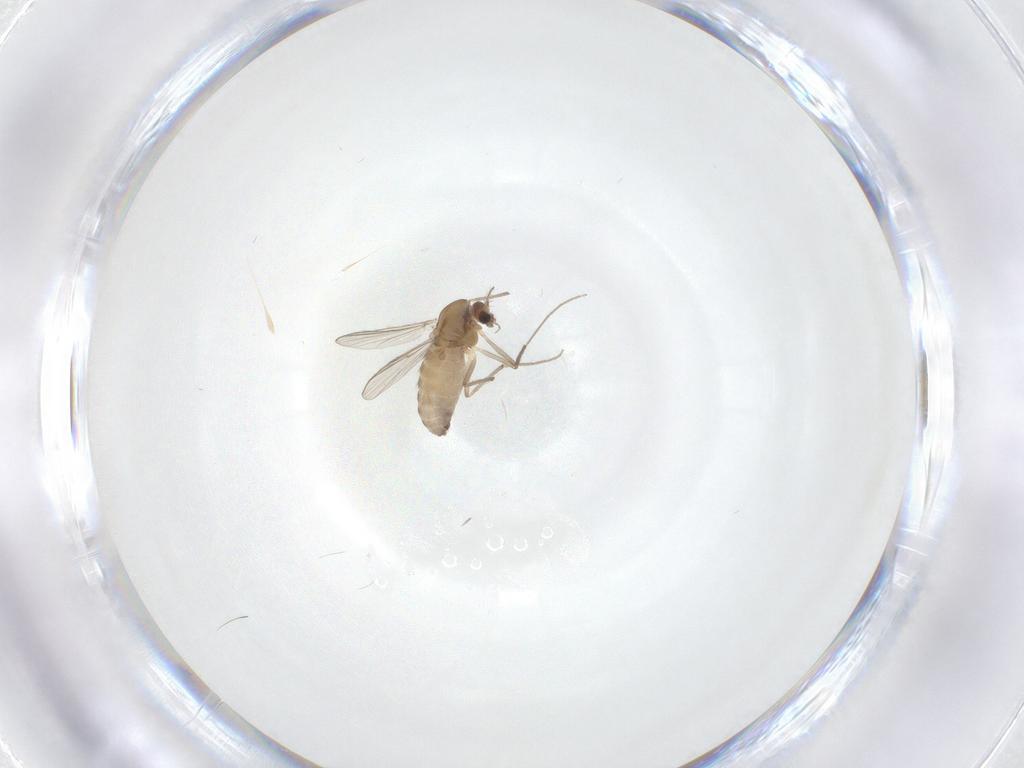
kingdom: Animalia
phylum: Arthropoda
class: Insecta
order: Diptera
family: Chironomidae
